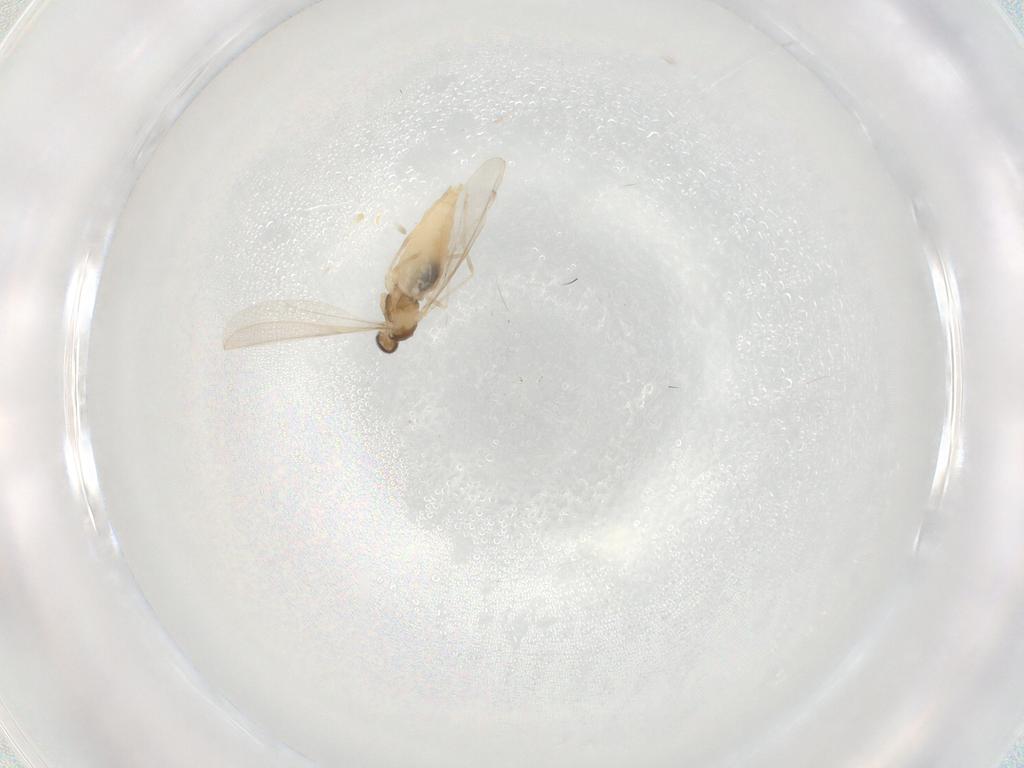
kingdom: Animalia
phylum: Arthropoda
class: Insecta
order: Diptera
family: Cecidomyiidae
